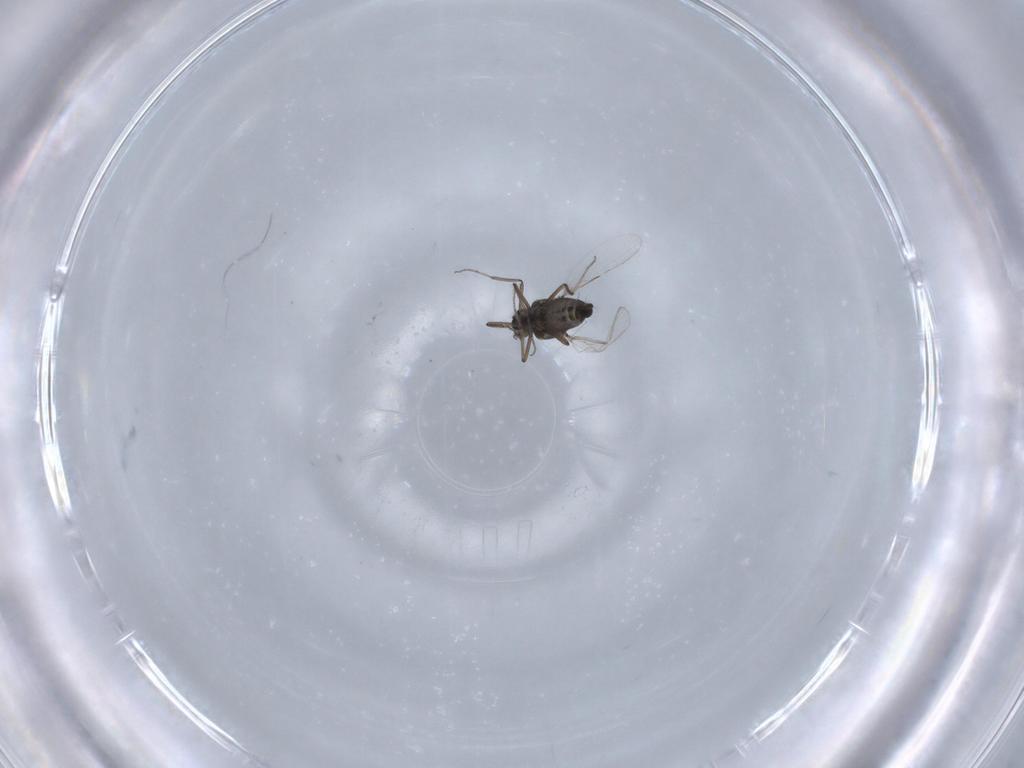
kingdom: Animalia
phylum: Arthropoda
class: Insecta
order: Diptera
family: Ceratopogonidae
